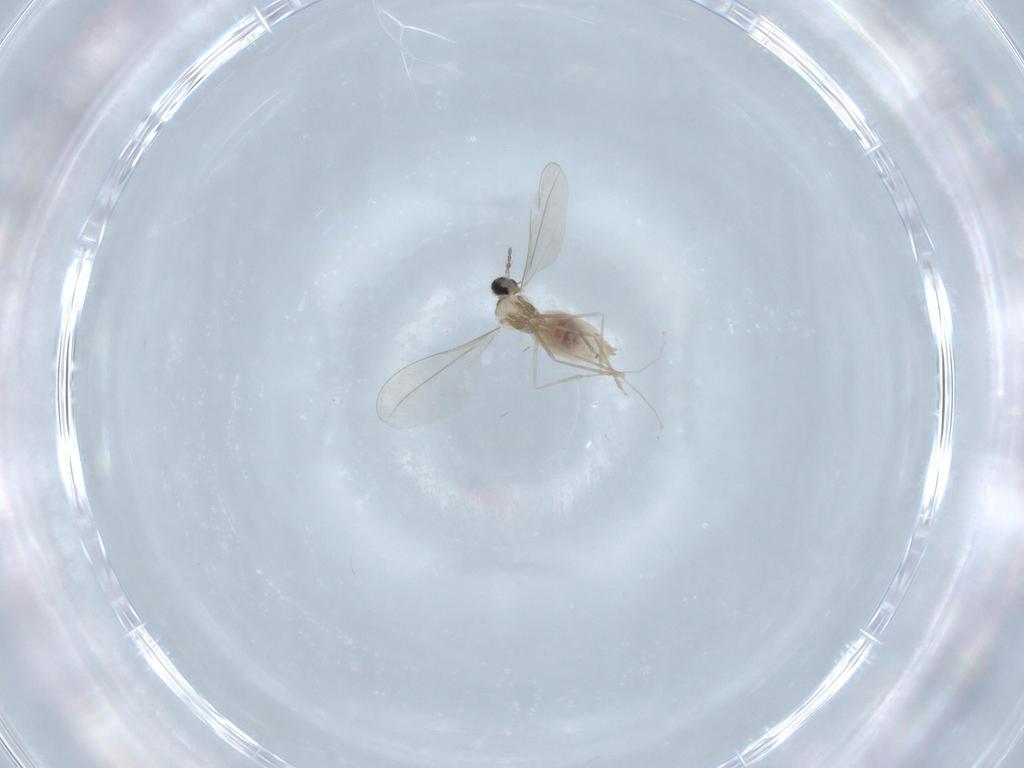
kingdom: Animalia
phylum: Arthropoda
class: Insecta
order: Diptera
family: Cecidomyiidae
